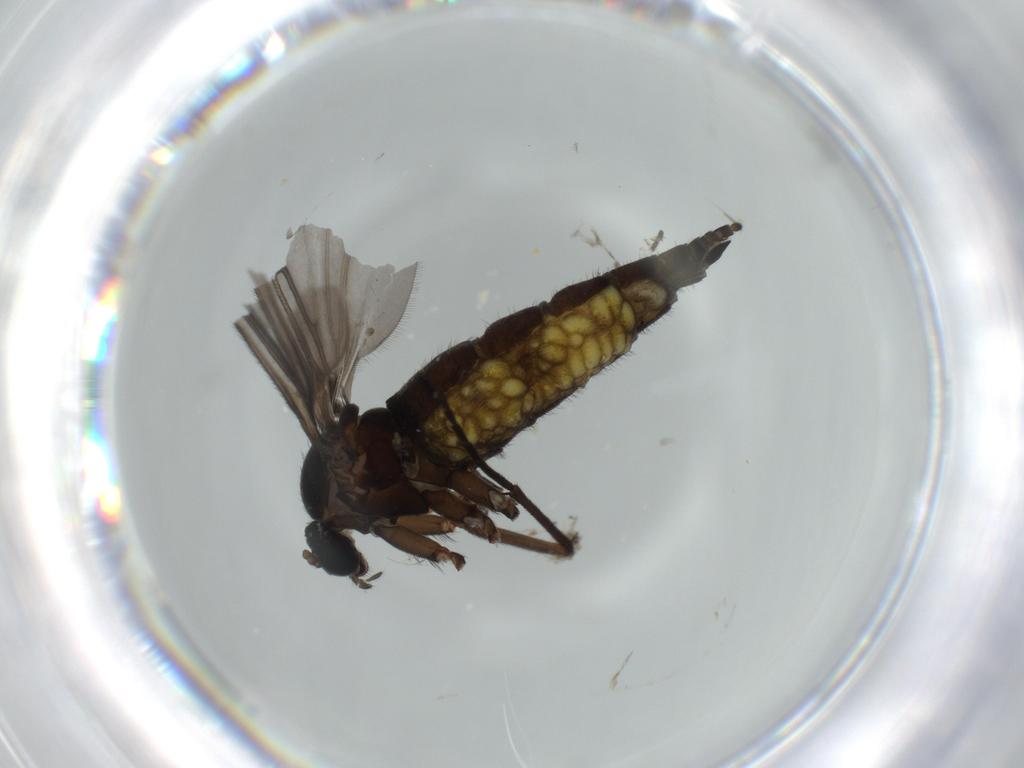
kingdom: Animalia
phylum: Arthropoda
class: Insecta
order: Diptera
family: Sciaridae
